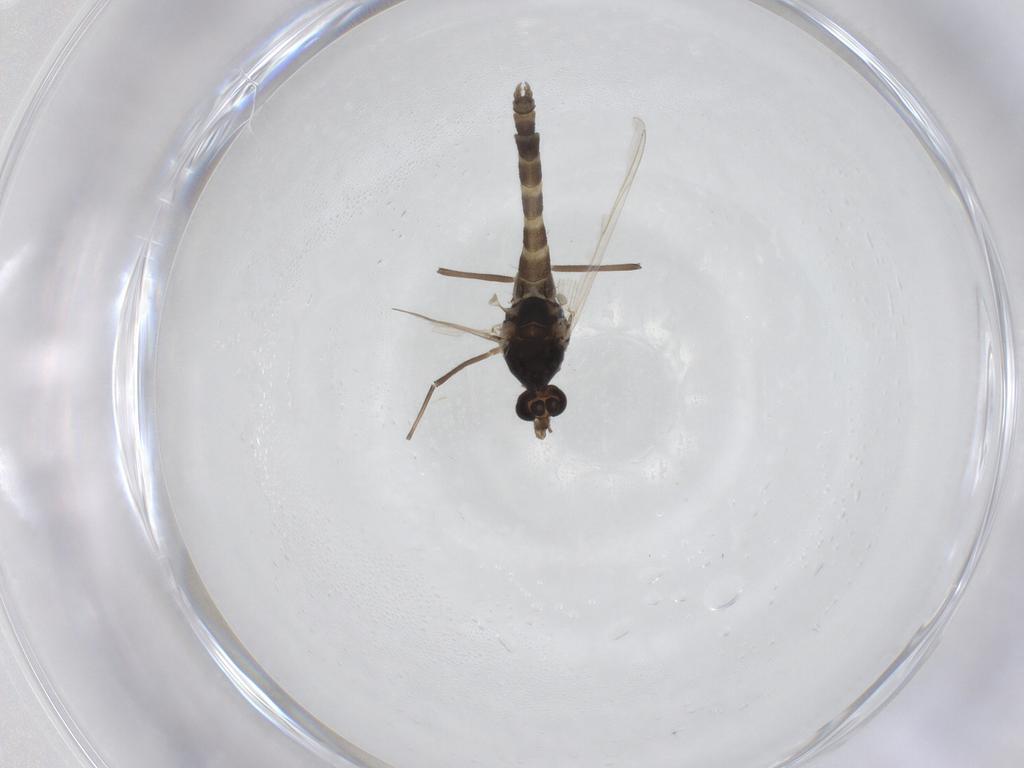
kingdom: Animalia
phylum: Arthropoda
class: Insecta
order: Diptera
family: Chironomidae
